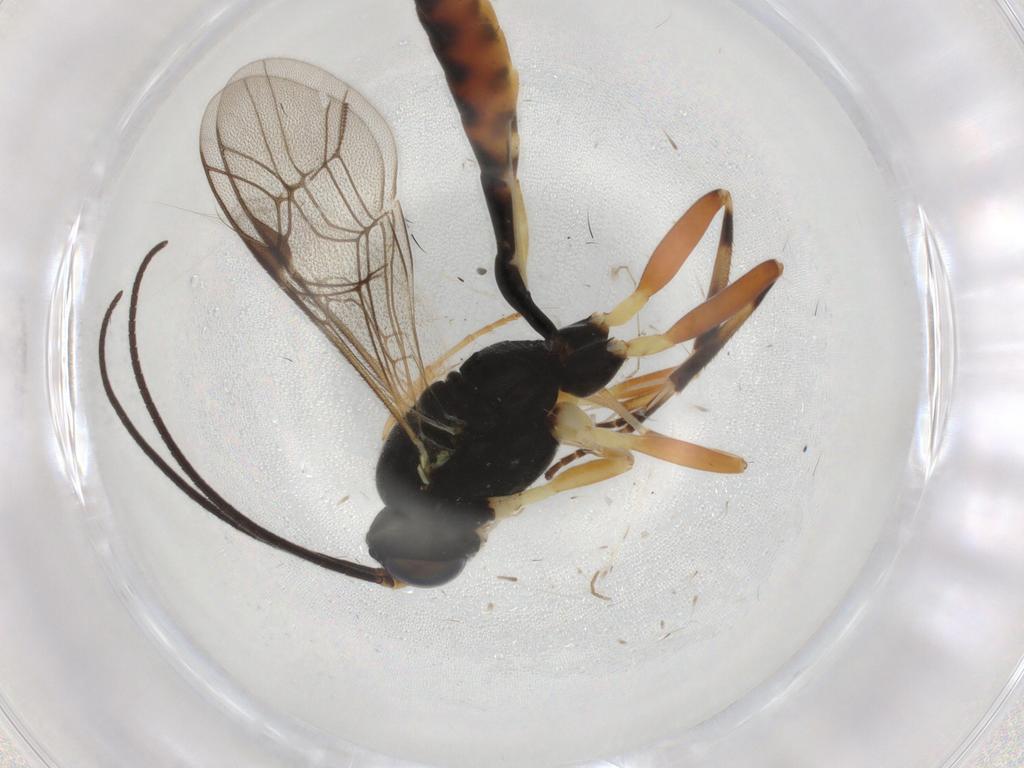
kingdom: Animalia
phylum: Arthropoda
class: Insecta
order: Hymenoptera
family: Ichneumonidae
